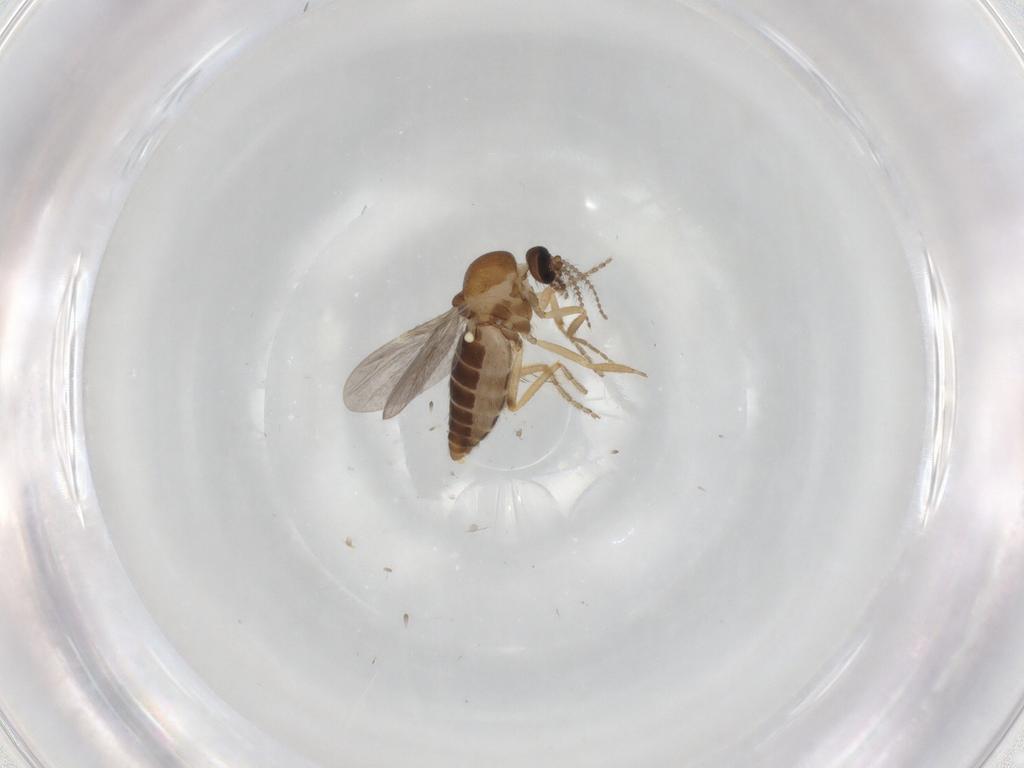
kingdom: Animalia
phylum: Arthropoda
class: Insecta
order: Diptera
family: Ceratopogonidae
